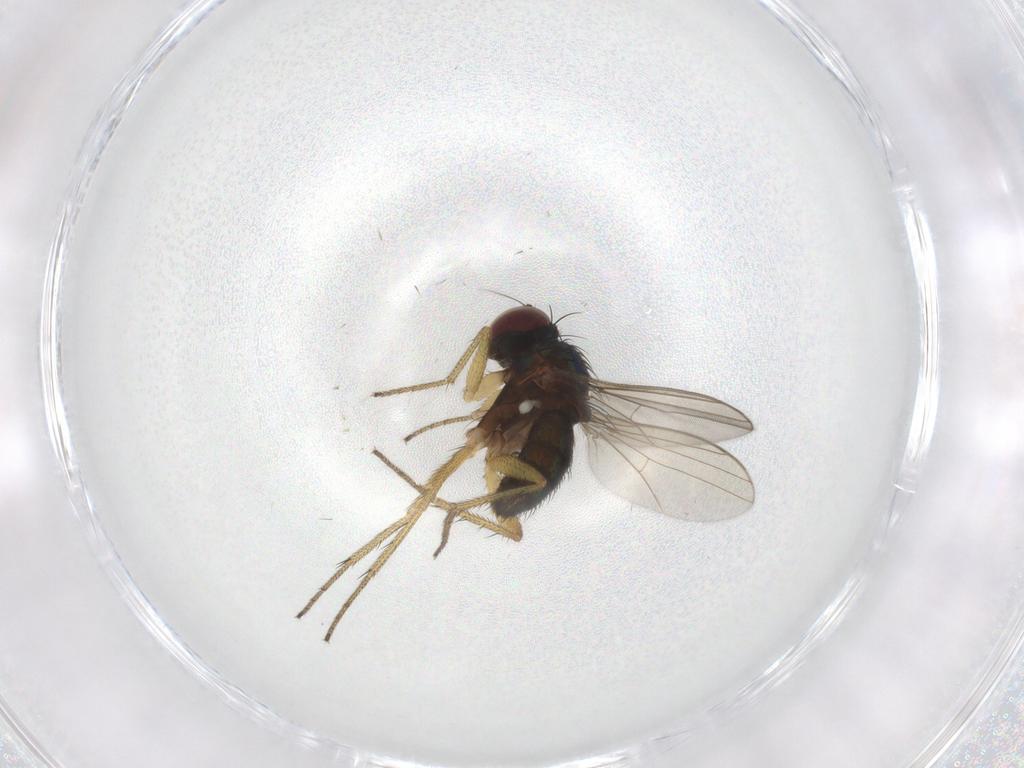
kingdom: Animalia
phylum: Arthropoda
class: Insecta
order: Diptera
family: Dolichopodidae
